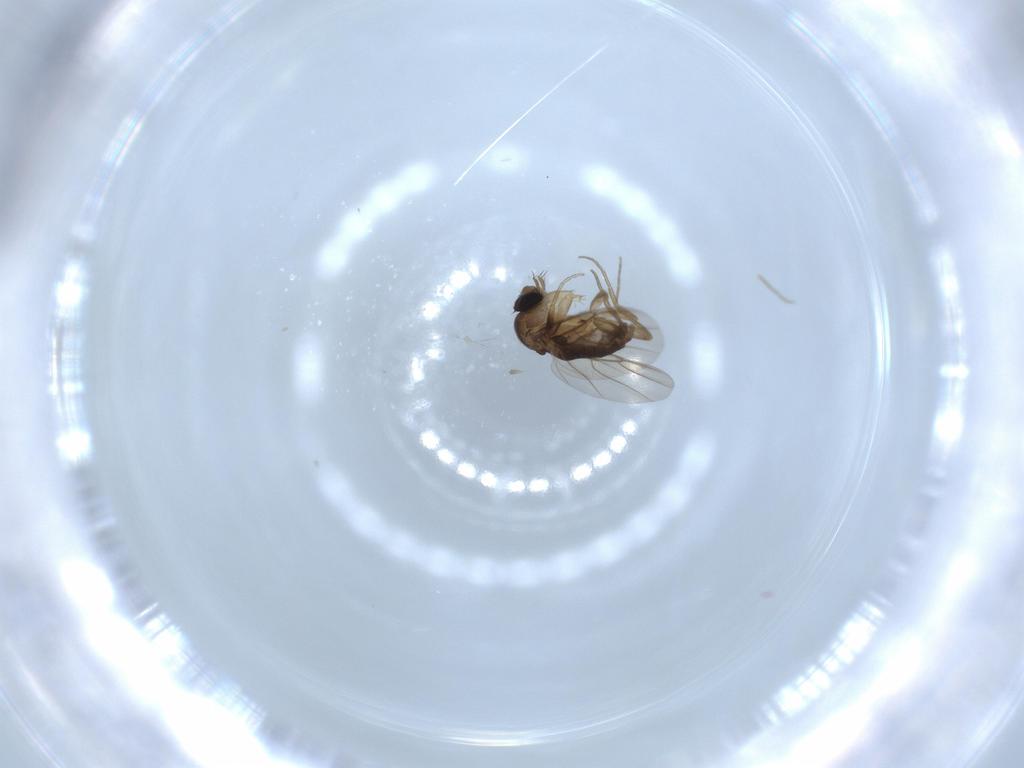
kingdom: Animalia
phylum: Arthropoda
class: Insecta
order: Diptera
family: Phoridae
